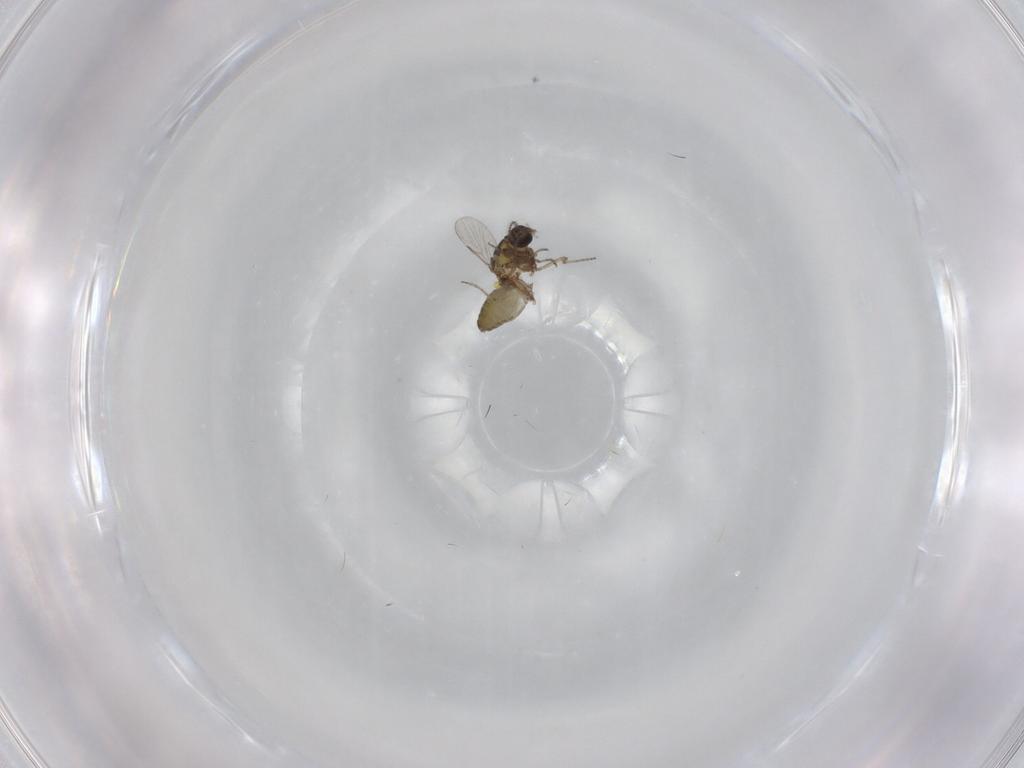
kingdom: Animalia
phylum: Arthropoda
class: Insecta
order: Diptera
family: Ceratopogonidae
